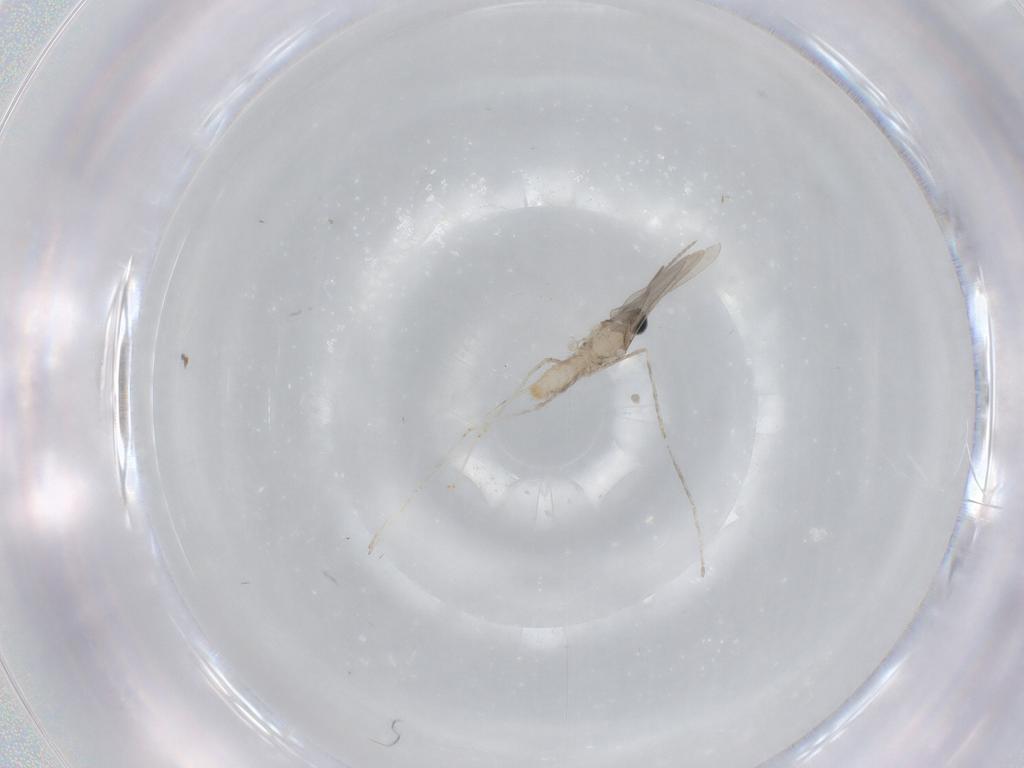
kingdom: Animalia
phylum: Arthropoda
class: Insecta
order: Diptera
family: Cecidomyiidae
